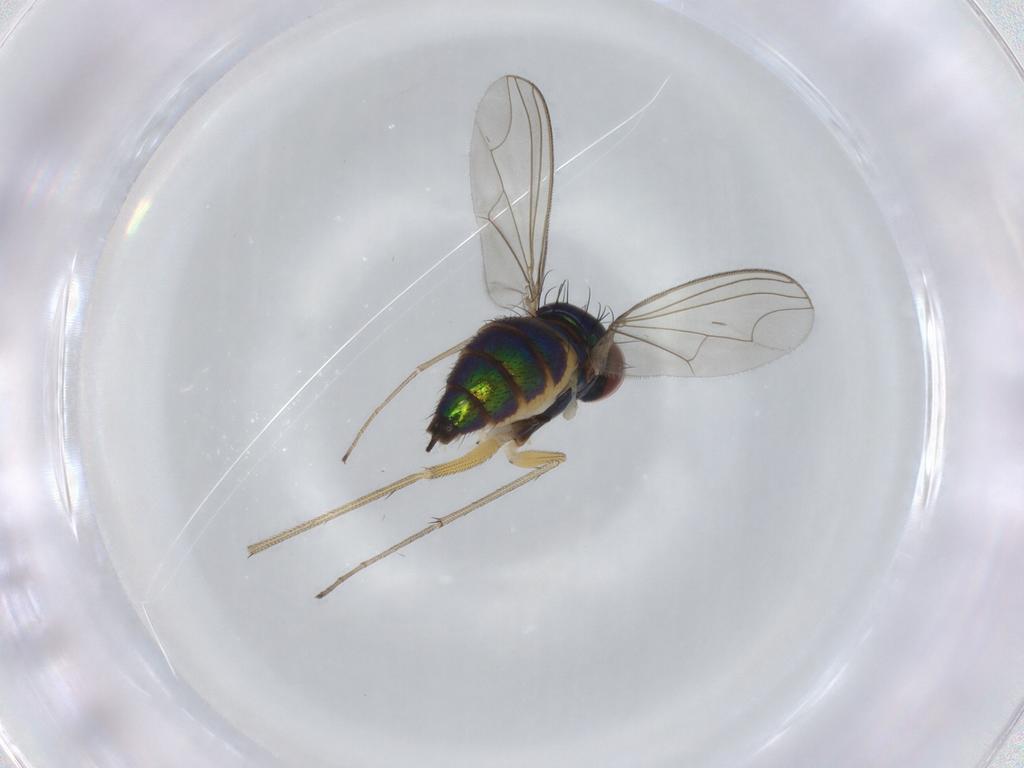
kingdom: Animalia
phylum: Arthropoda
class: Insecta
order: Diptera
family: Dolichopodidae
